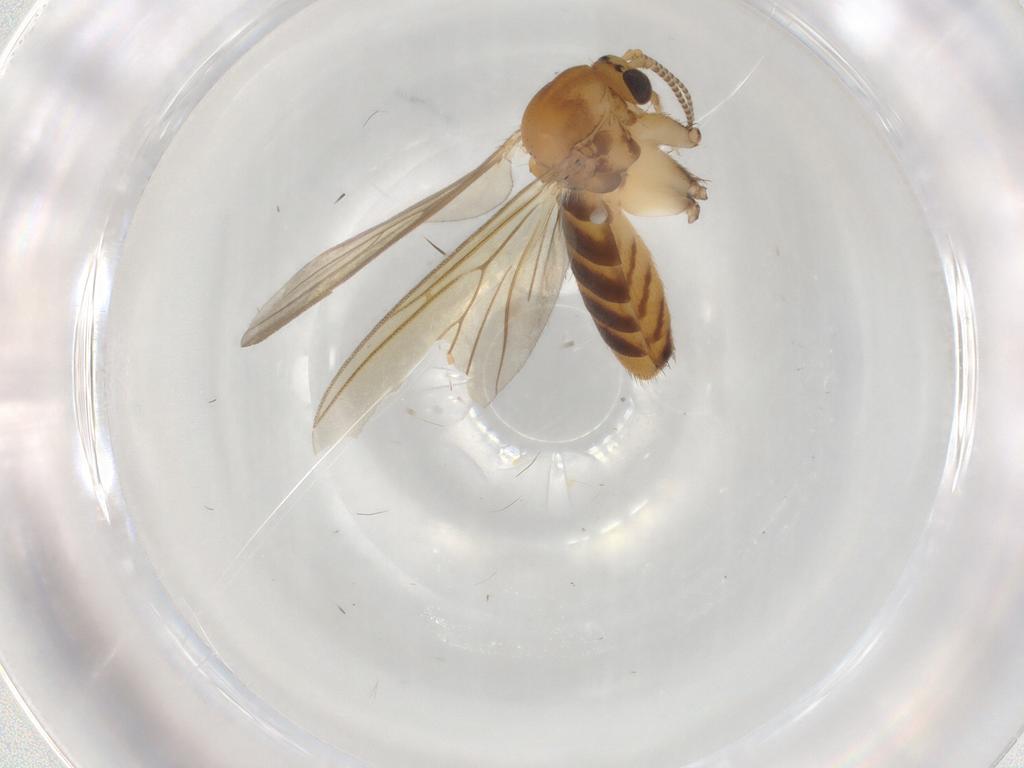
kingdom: Animalia
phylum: Arthropoda
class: Insecta
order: Diptera
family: Mycetophilidae
